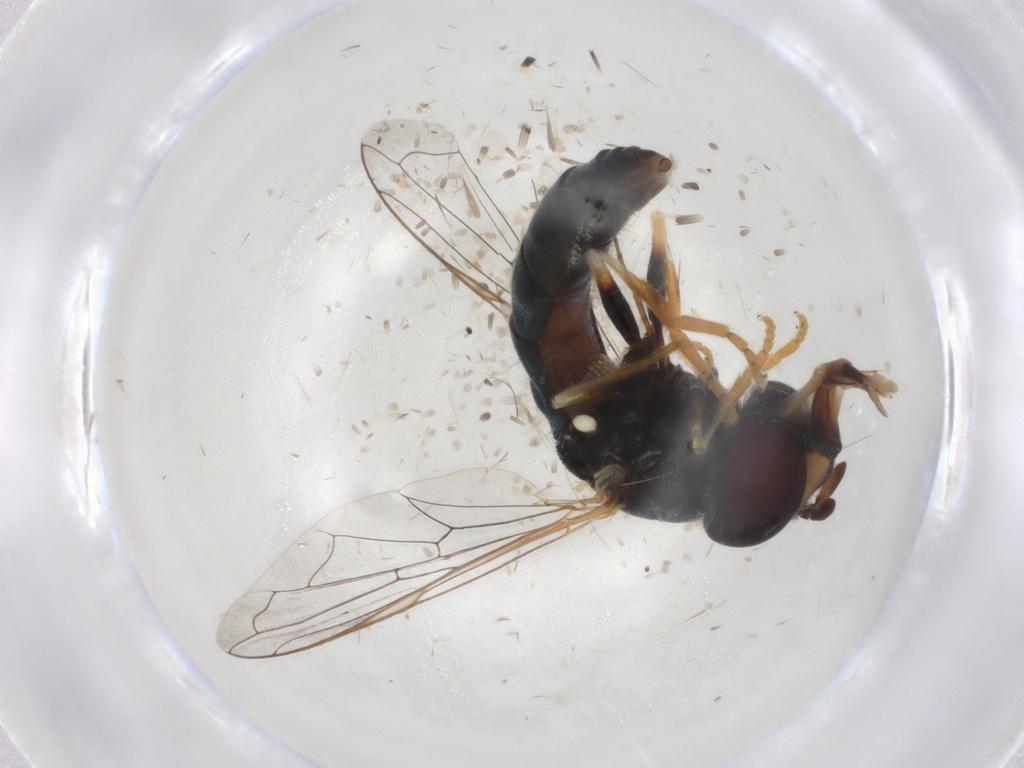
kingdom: Animalia
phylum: Arthropoda
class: Insecta
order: Diptera
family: Syrphidae
